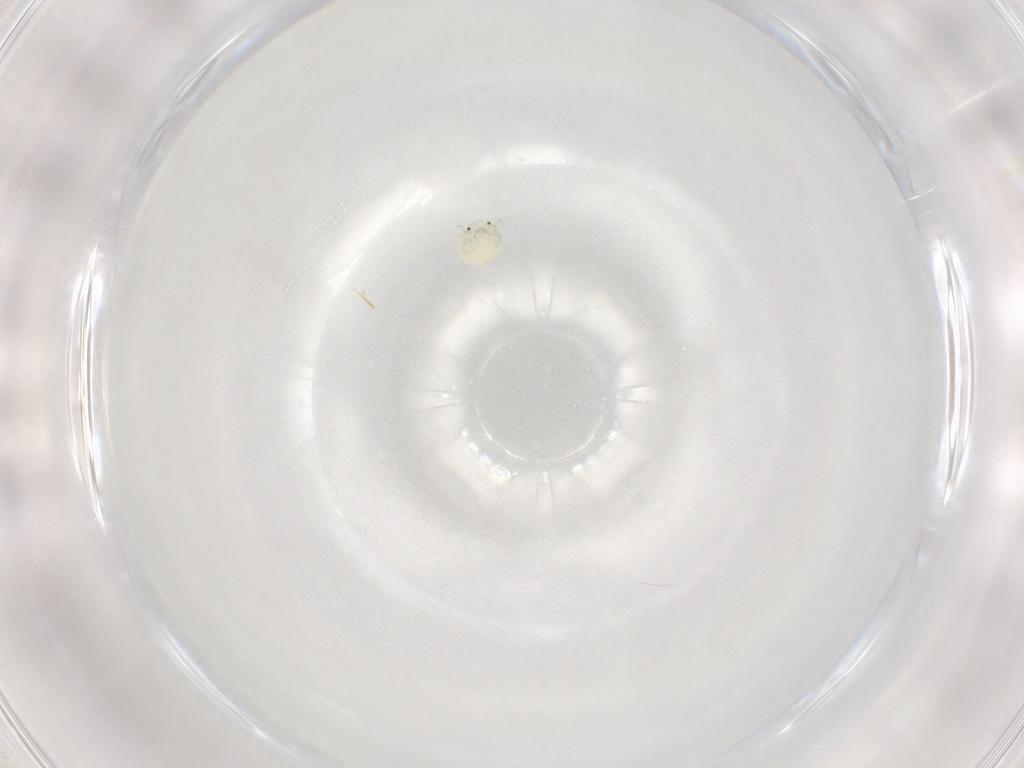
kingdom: Animalia
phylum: Arthropoda
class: Arachnida
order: Trombidiformes
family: Arrenuridae
